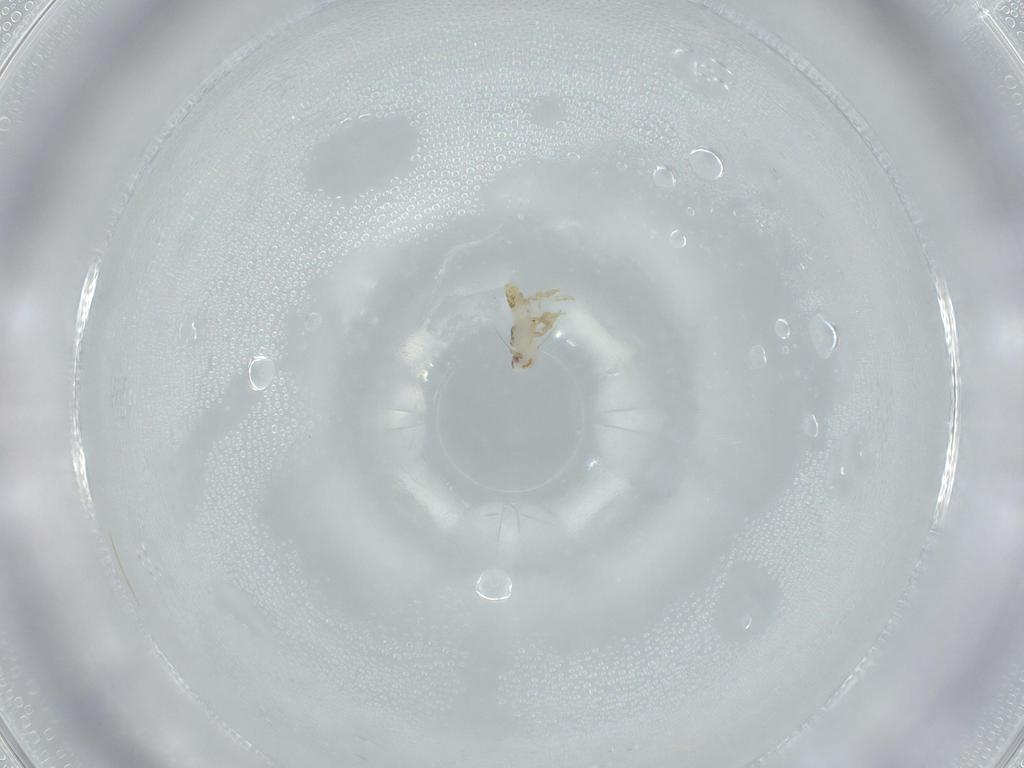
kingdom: Animalia
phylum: Arthropoda
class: Insecta
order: Hemiptera
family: Delphacidae
